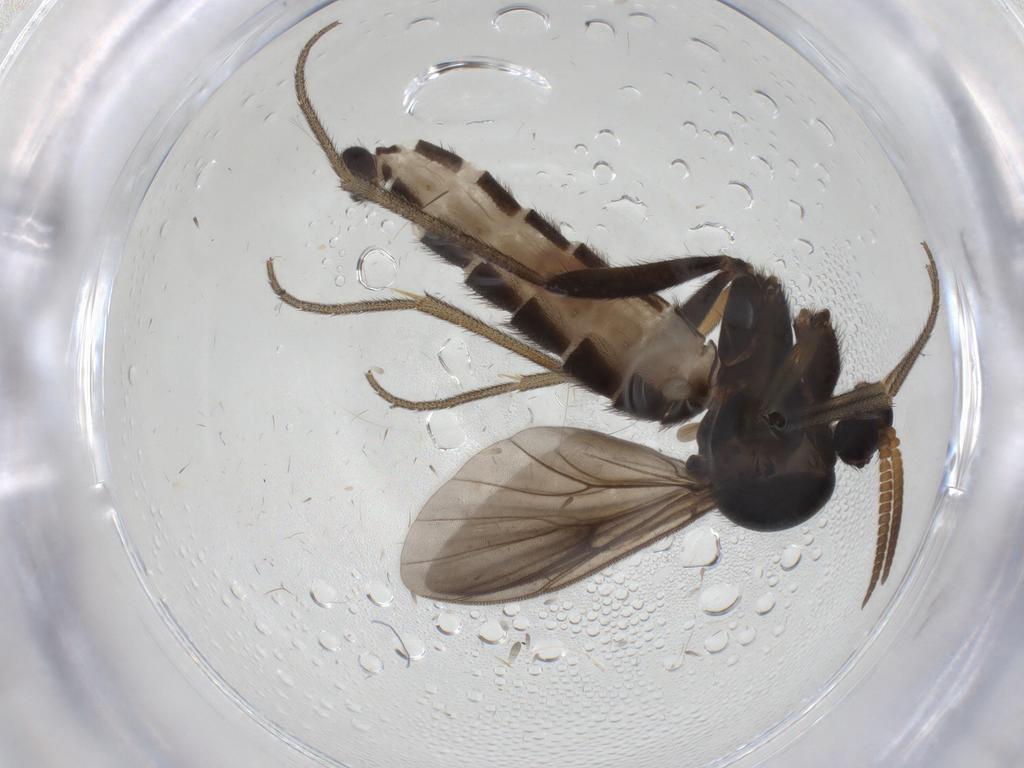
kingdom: Animalia
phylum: Arthropoda
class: Insecta
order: Diptera
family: Mycetophilidae
